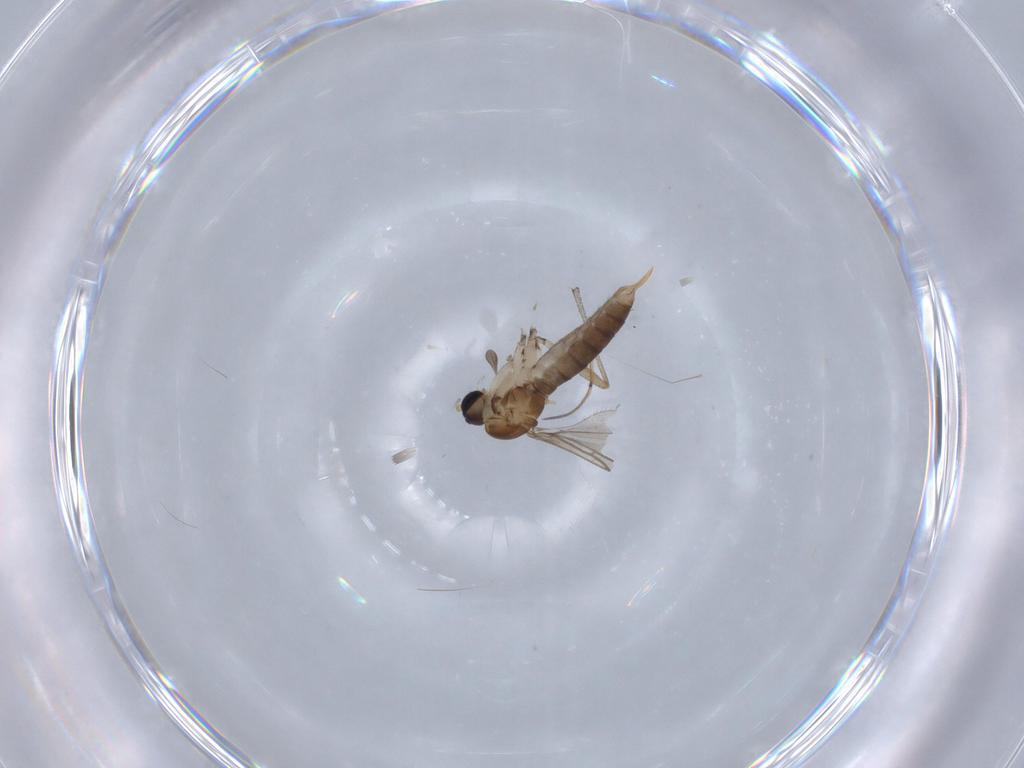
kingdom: Animalia
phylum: Arthropoda
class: Insecta
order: Diptera
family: Sciaridae
